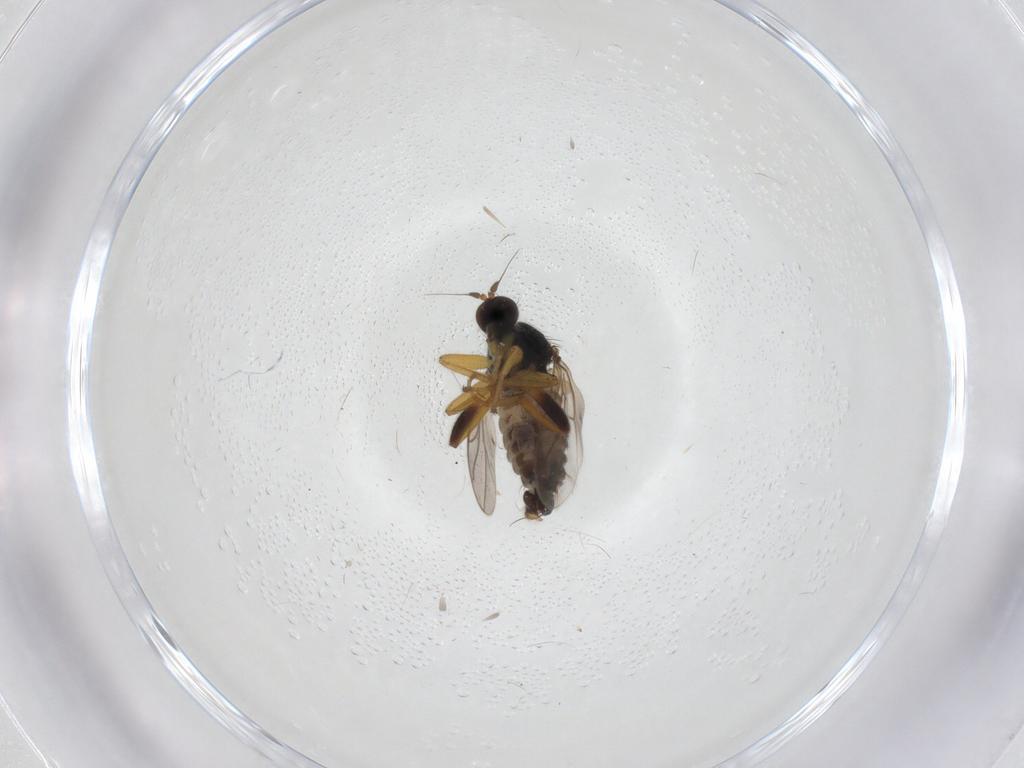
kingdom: Animalia
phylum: Arthropoda
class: Insecta
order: Diptera
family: Hybotidae
